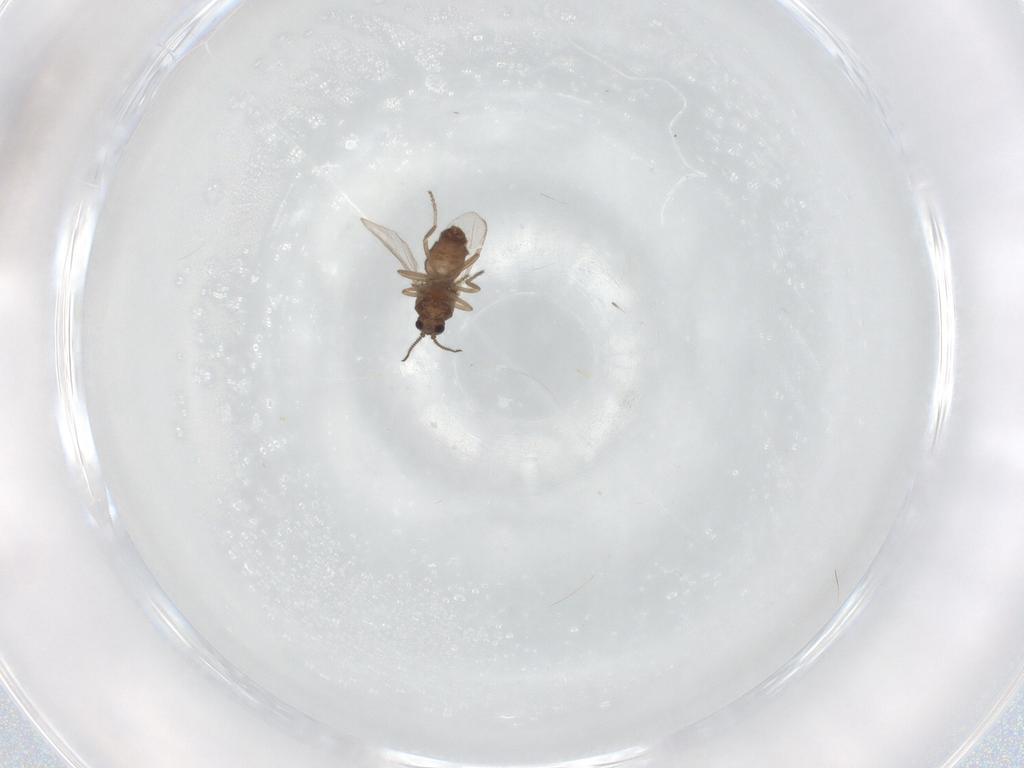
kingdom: Animalia
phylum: Arthropoda
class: Insecta
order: Diptera
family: Ceratopogonidae
